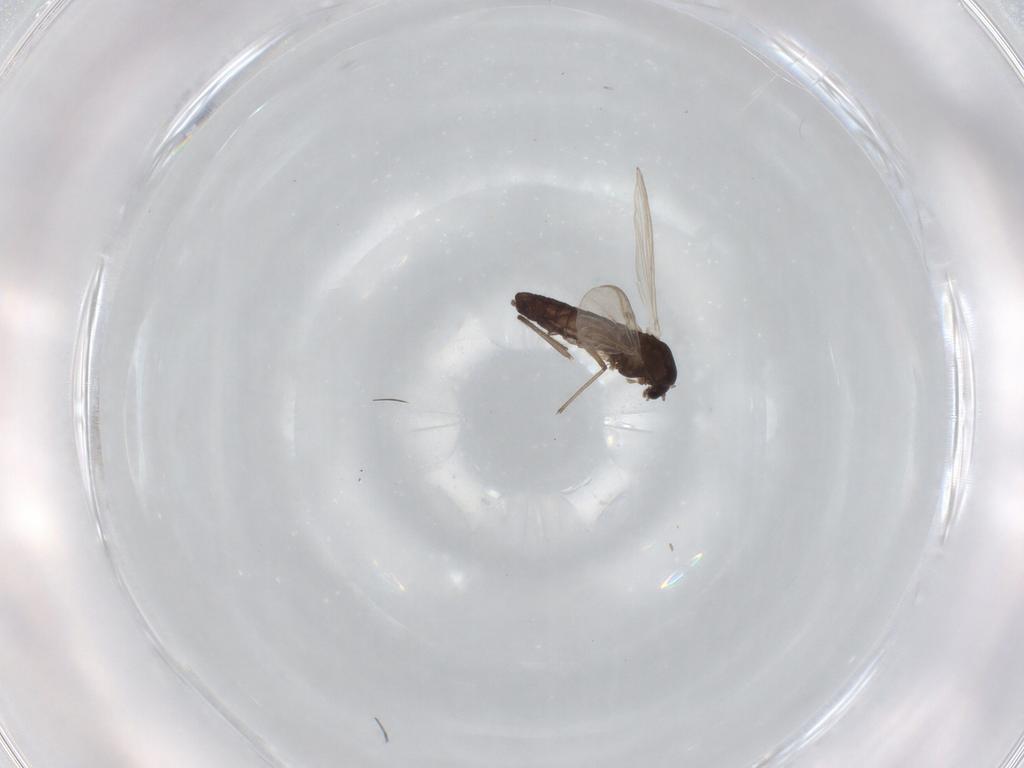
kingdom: Animalia
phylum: Arthropoda
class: Insecta
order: Diptera
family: Chironomidae
